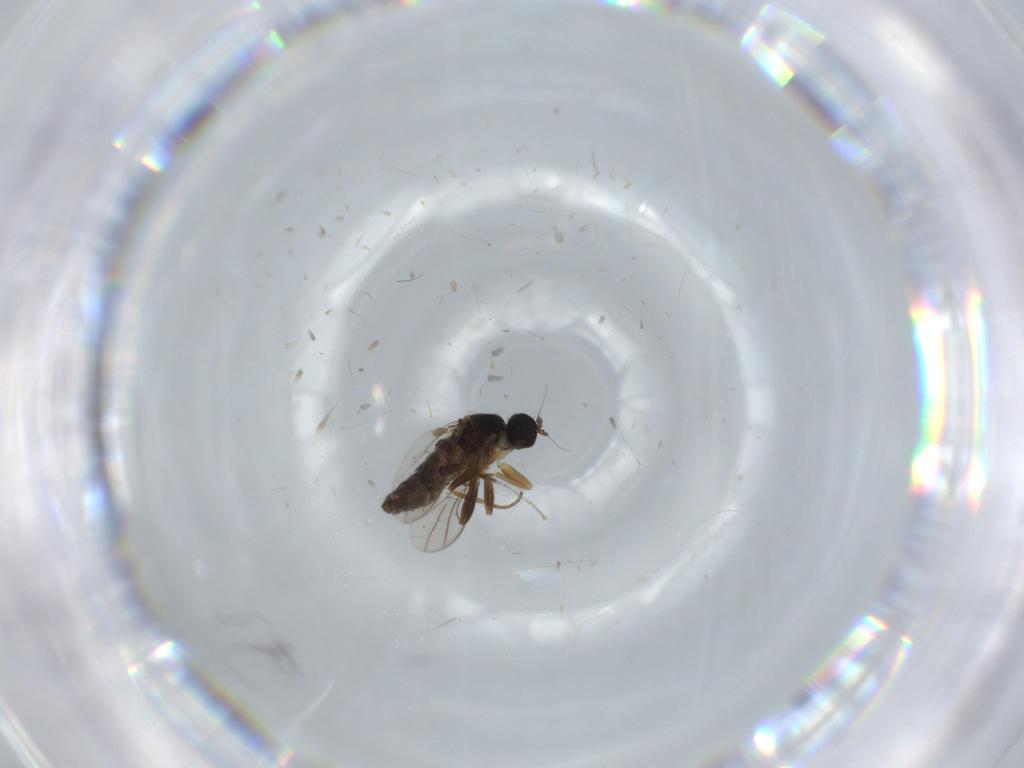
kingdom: Animalia
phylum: Arthropoda
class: Insecta
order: Diptera
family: Hybotidae
